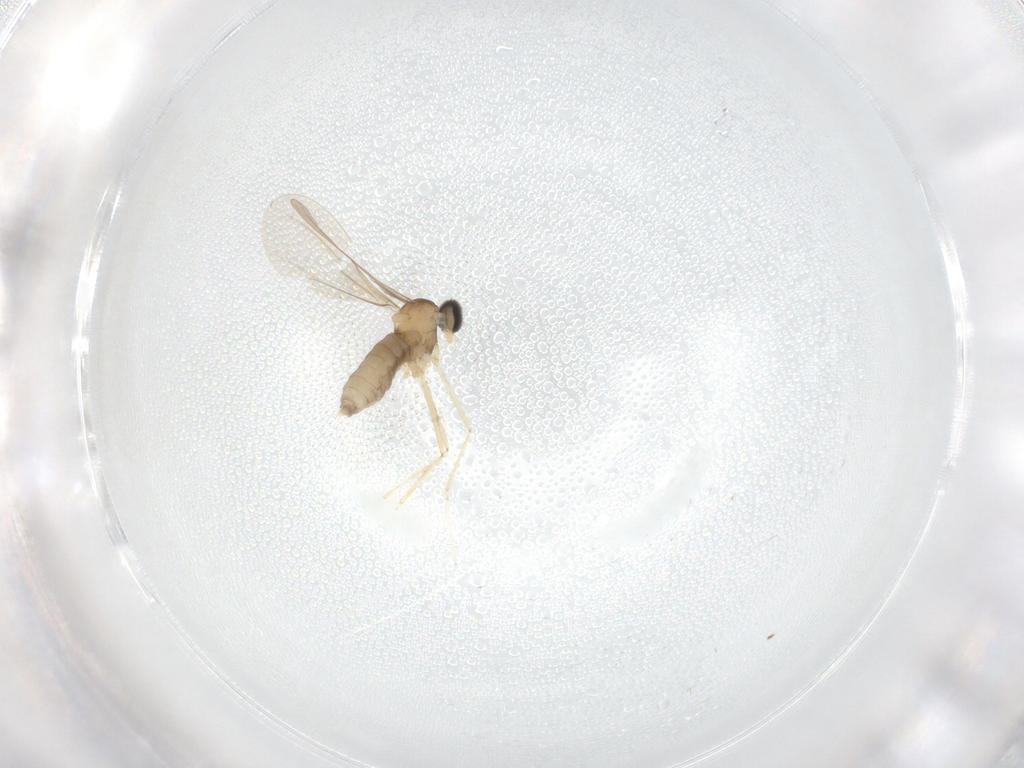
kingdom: Animalia
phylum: Arthropoda
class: Insecta
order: Diptera
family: Cecidomyiidae
